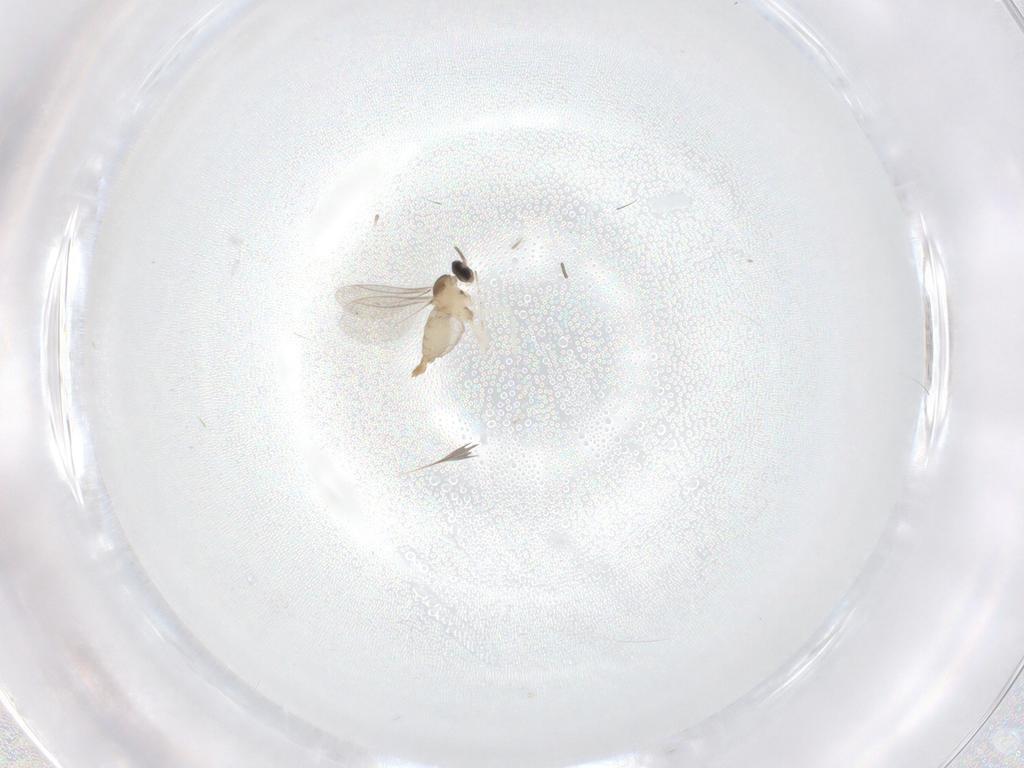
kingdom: Animalia
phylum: Arthropoda
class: Insecta
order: Diptera
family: Cecidomyiidae
